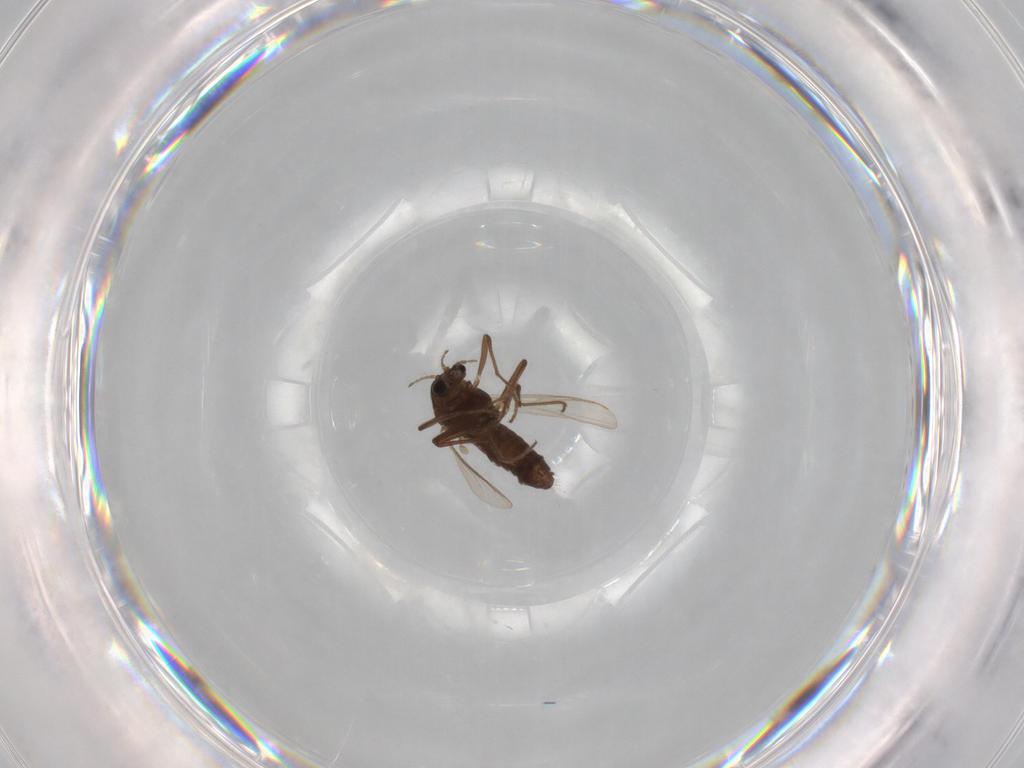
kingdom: Animalia
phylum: Arthropoda
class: Insecta
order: Diptera
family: Chironomidae
